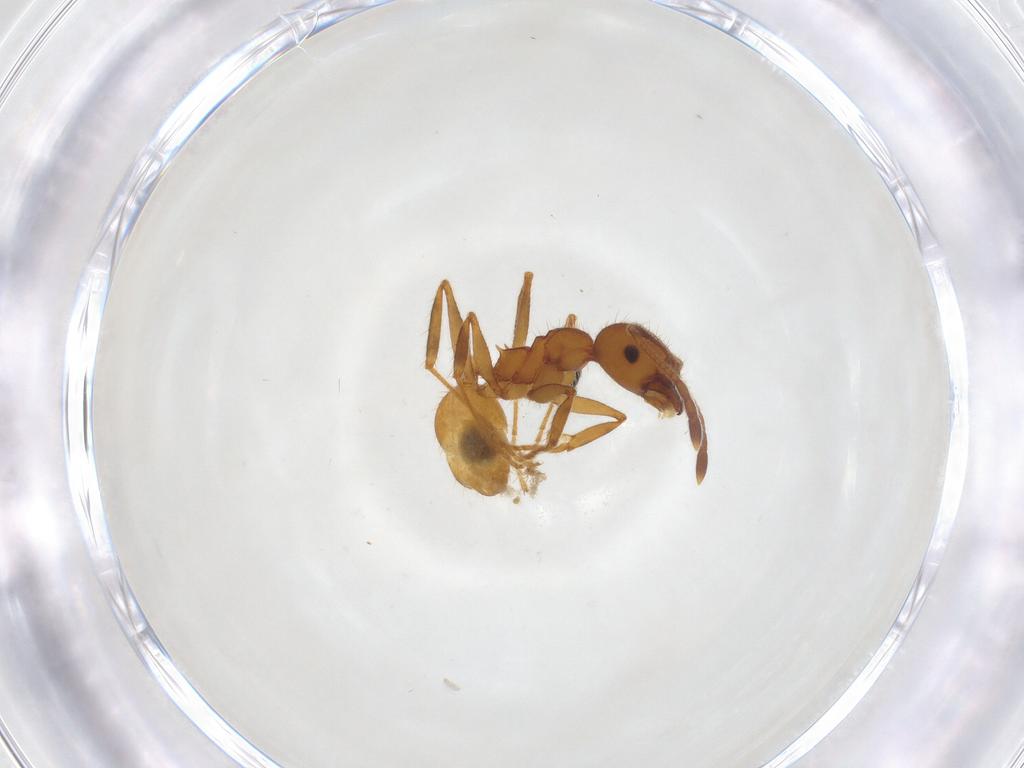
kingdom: Animalia
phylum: Arthropoda
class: Insecta
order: Hymenoptera
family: Formicidae
